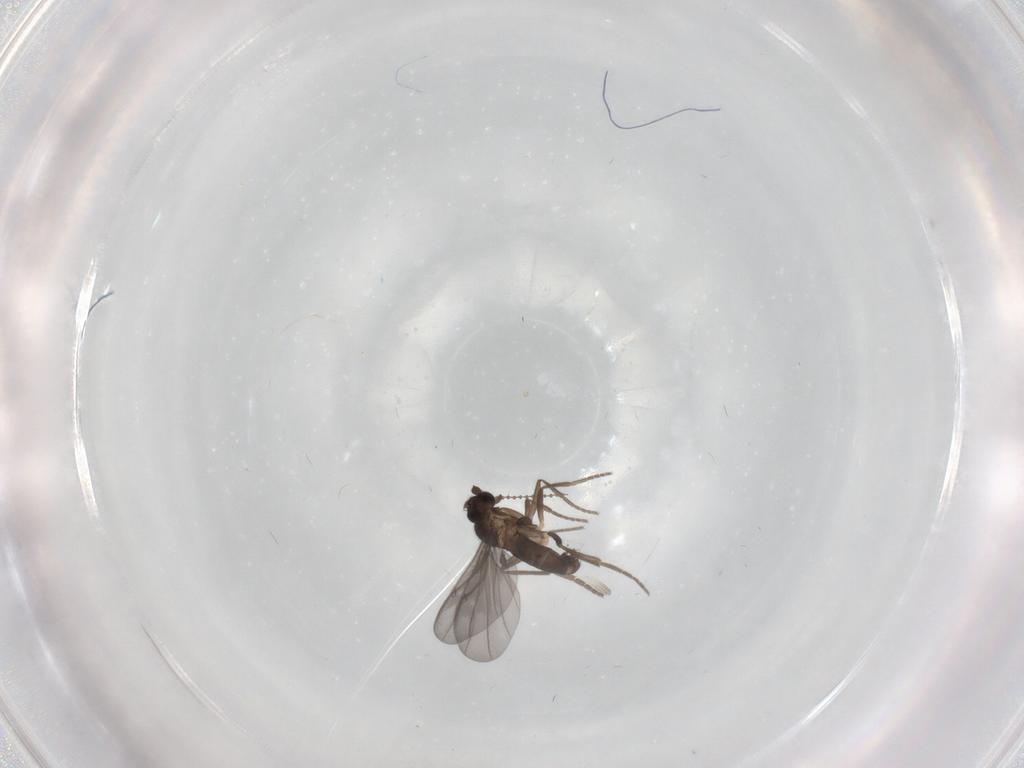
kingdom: Animalia
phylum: Arthropoda
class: Insecta
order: Diptera
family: Phoridae
